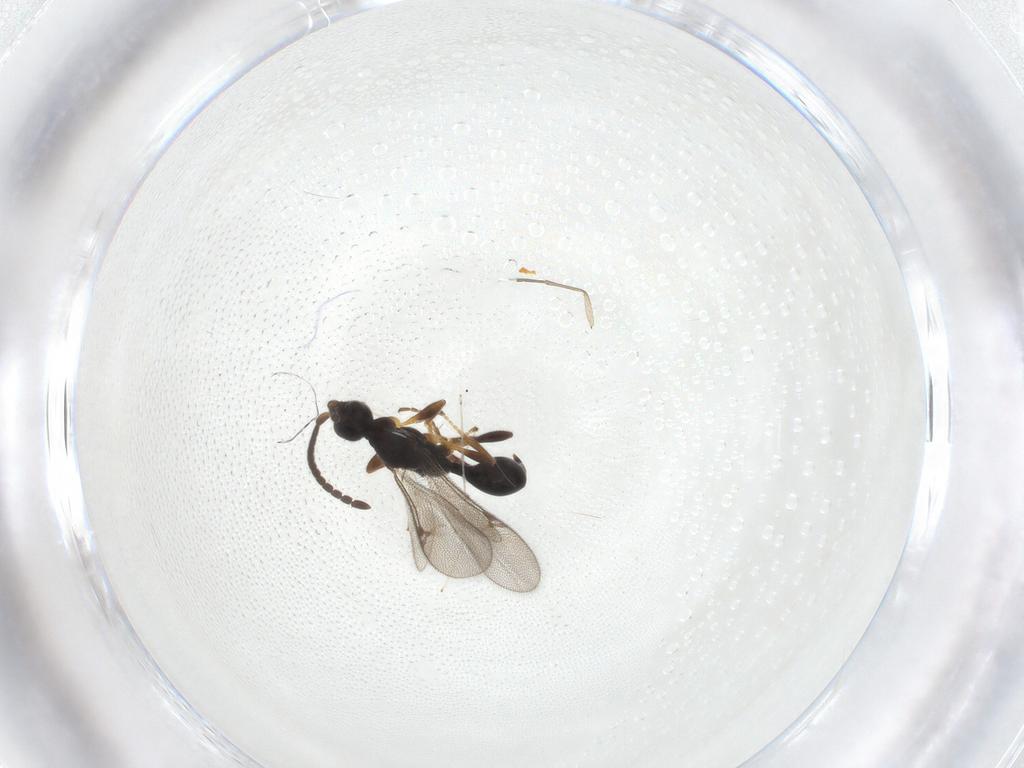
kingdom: Animalia
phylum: Arthropoda
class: Insecta
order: Hymenoptera
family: Proctotrupidae
